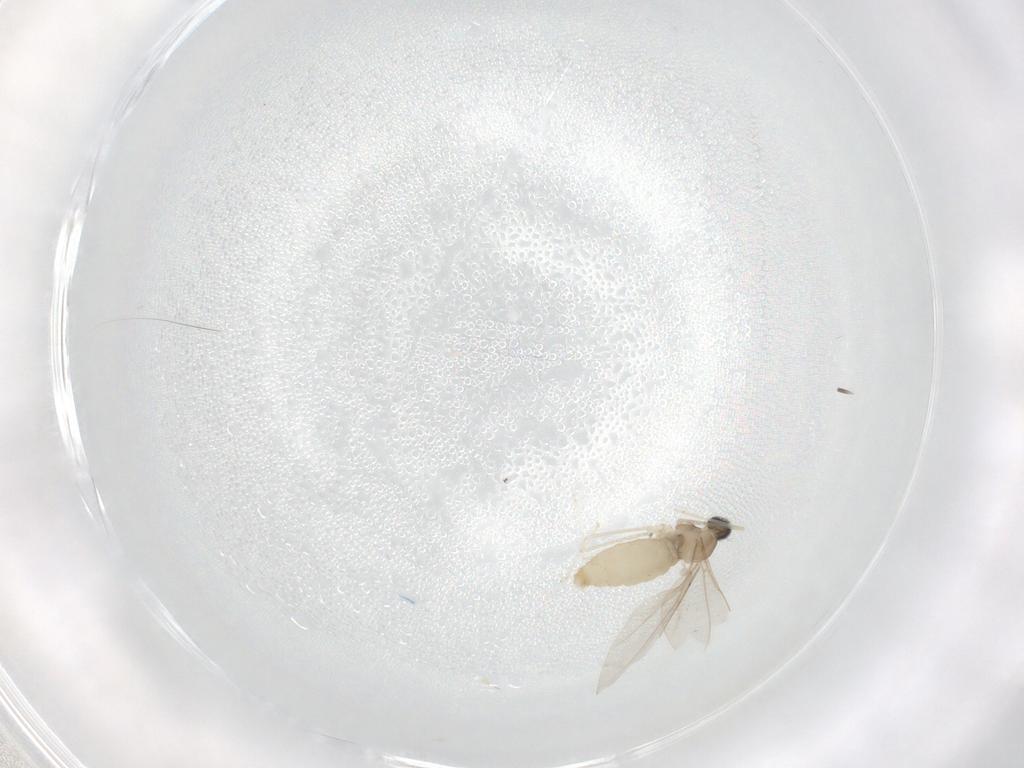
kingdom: Animalia
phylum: Arthropoda
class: Insecta
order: Diptera
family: Cecidomyiidae
